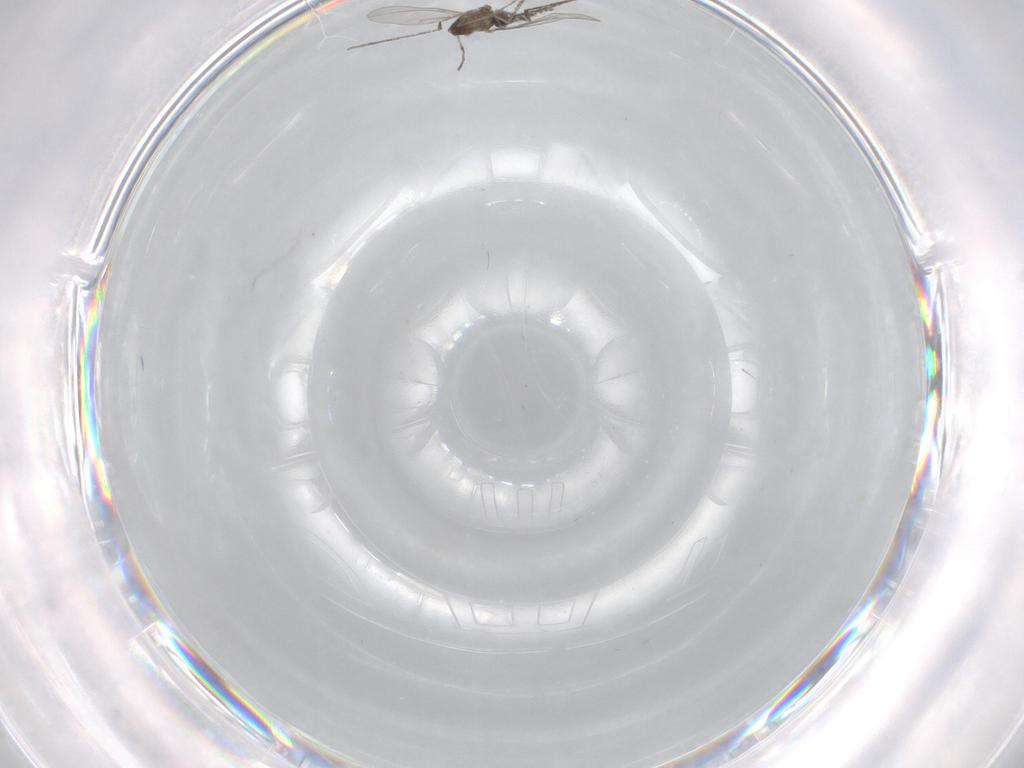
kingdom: Animalia
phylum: Arthropoda
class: Insecta
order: Diptera
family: Cecidomyiidae
